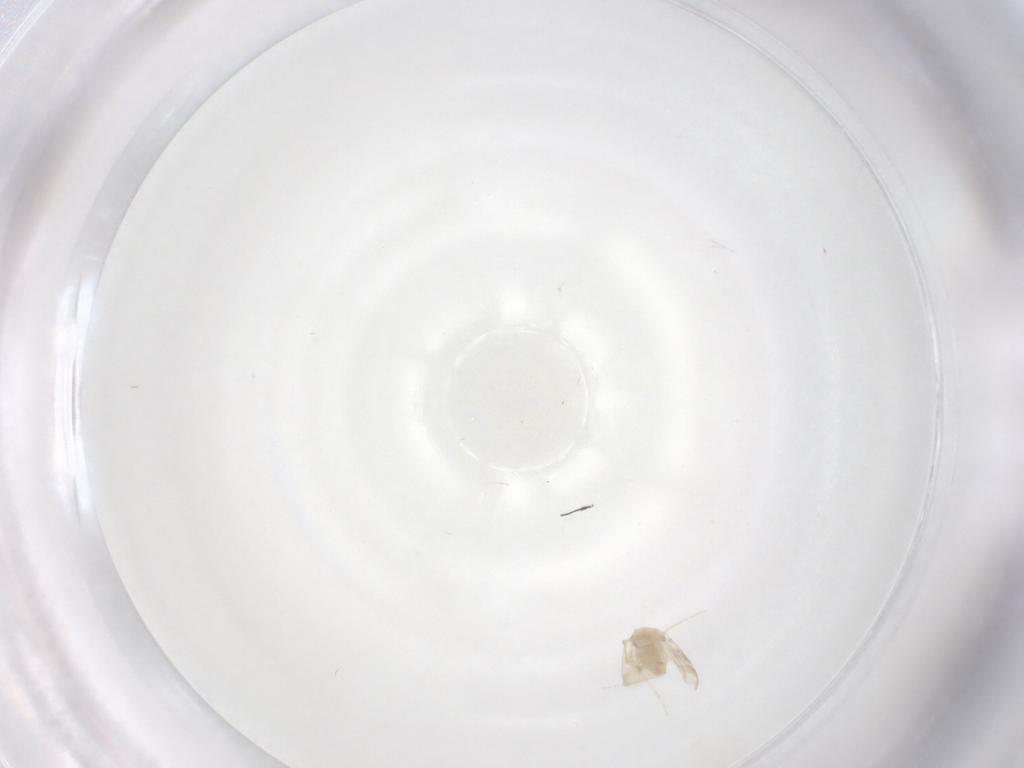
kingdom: Animalia
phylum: Arthropoda
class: Insecta
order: Hemiptera
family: Aleyrodidae
